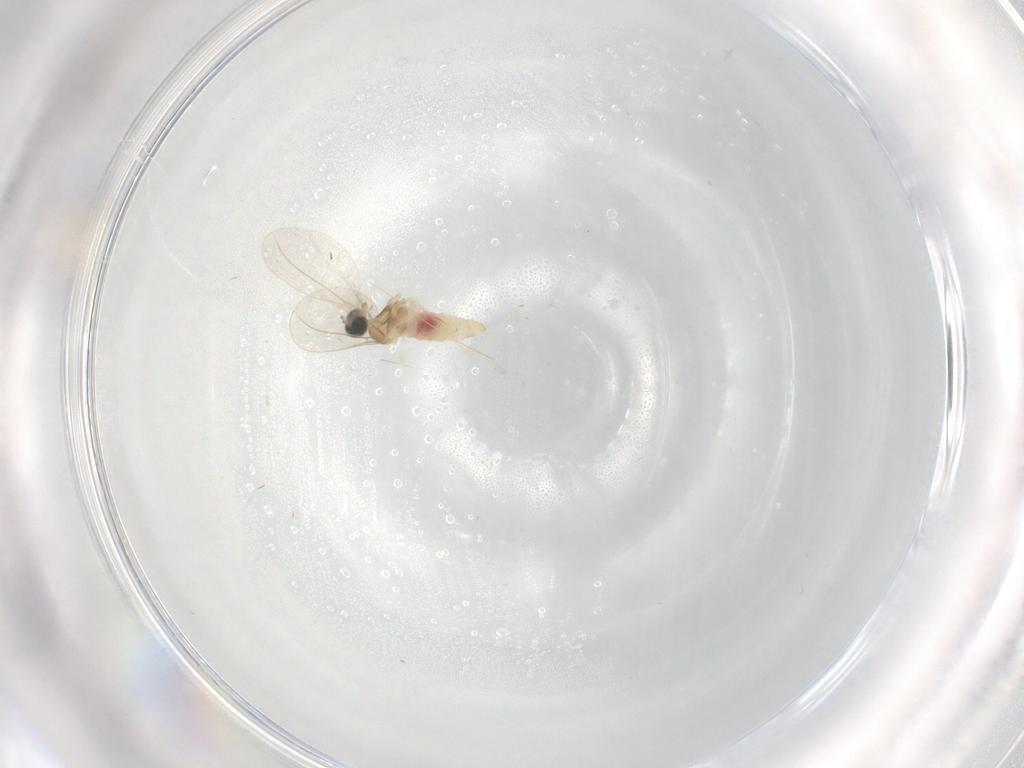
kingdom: Animalia
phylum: Arthropoda
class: Insecta
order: Diptera
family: Cecidomyiidae
